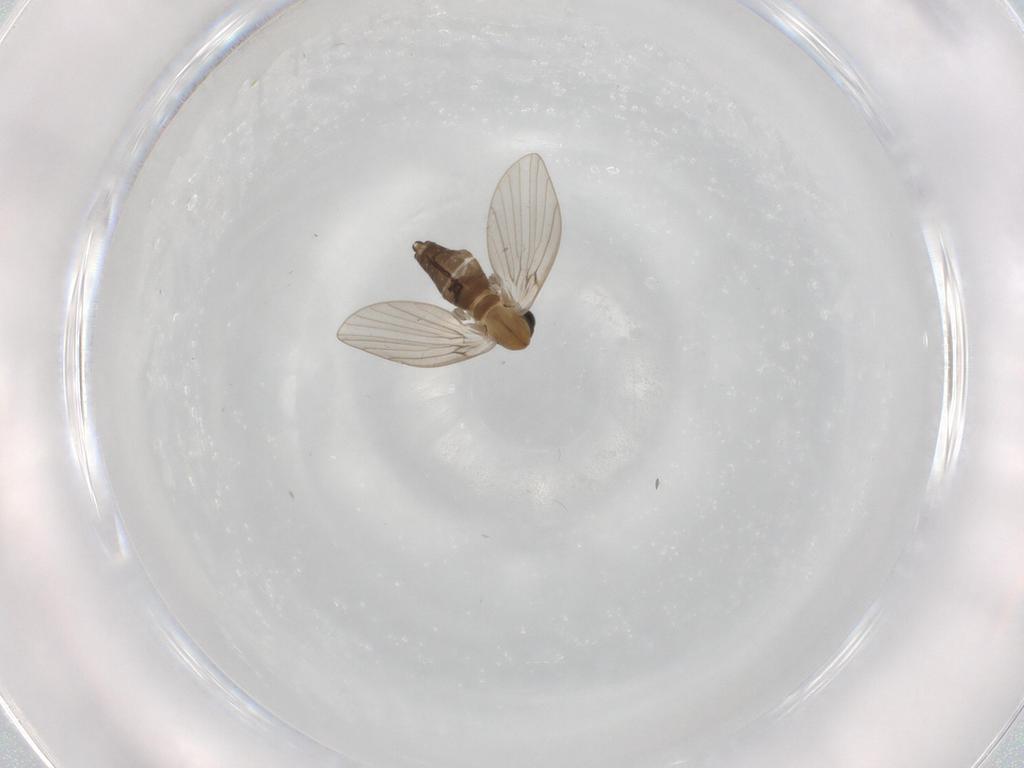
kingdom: Animalia
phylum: Arthropoda
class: Insecta
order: Diptera
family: Psychodidae
